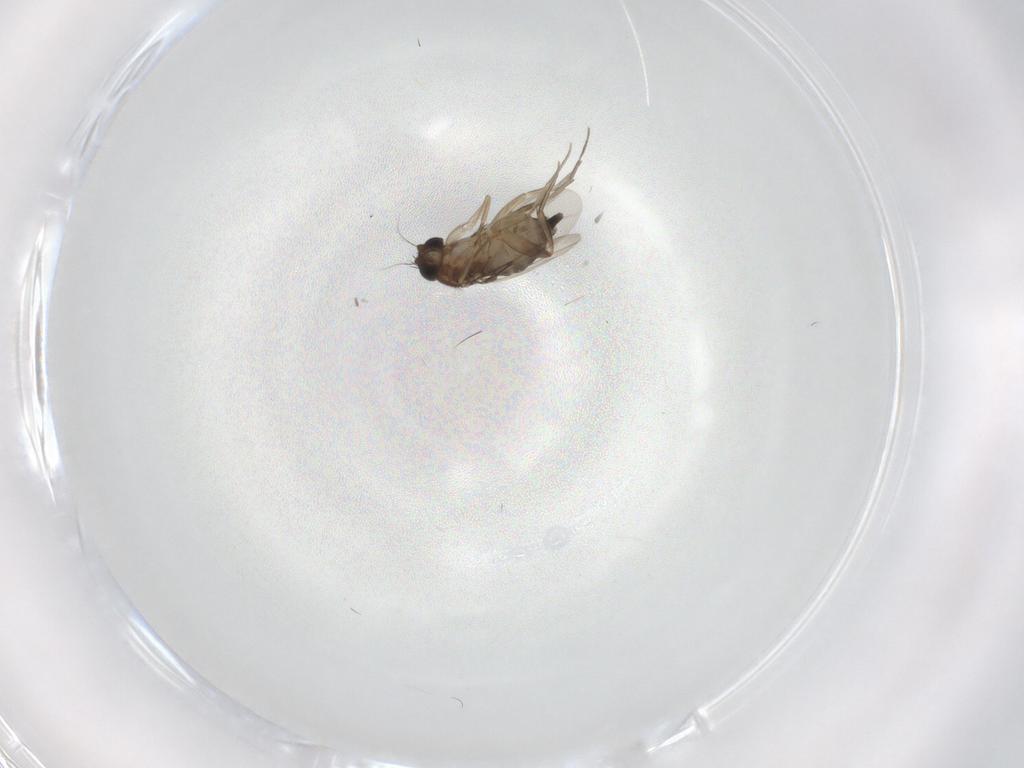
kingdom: Animalia
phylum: Arthropoda
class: Insecta
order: Diptera
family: Phoridae
